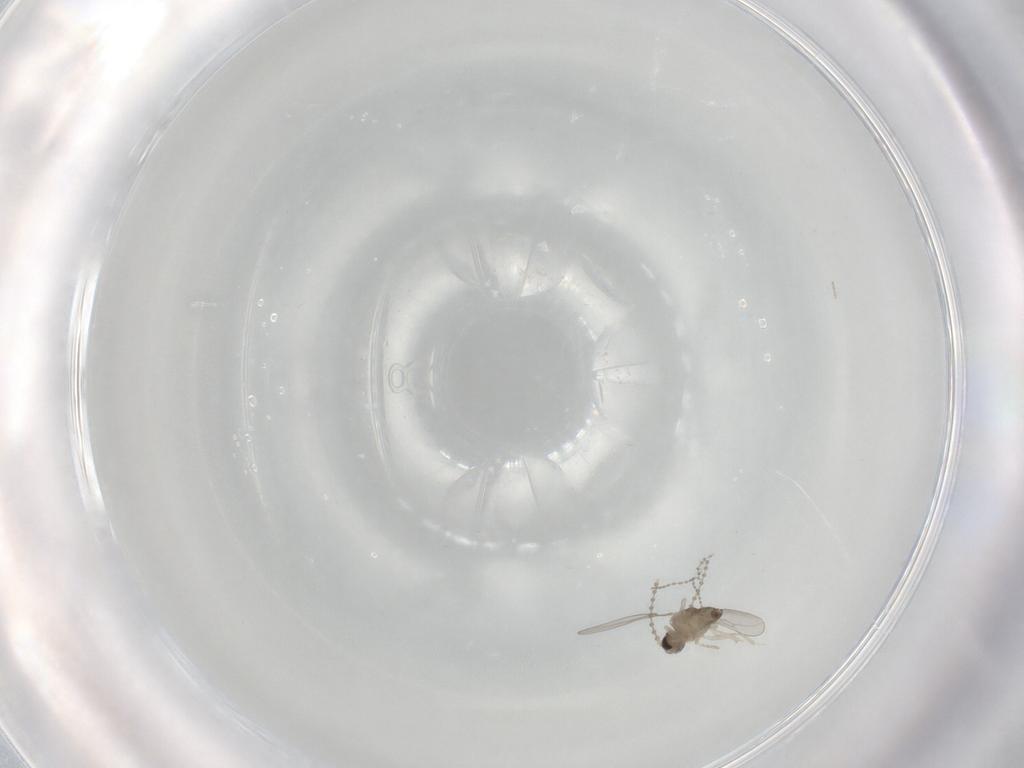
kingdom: Animalia
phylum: Arthropoda
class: Insecta
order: Diptera
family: Cecidomyiidae
